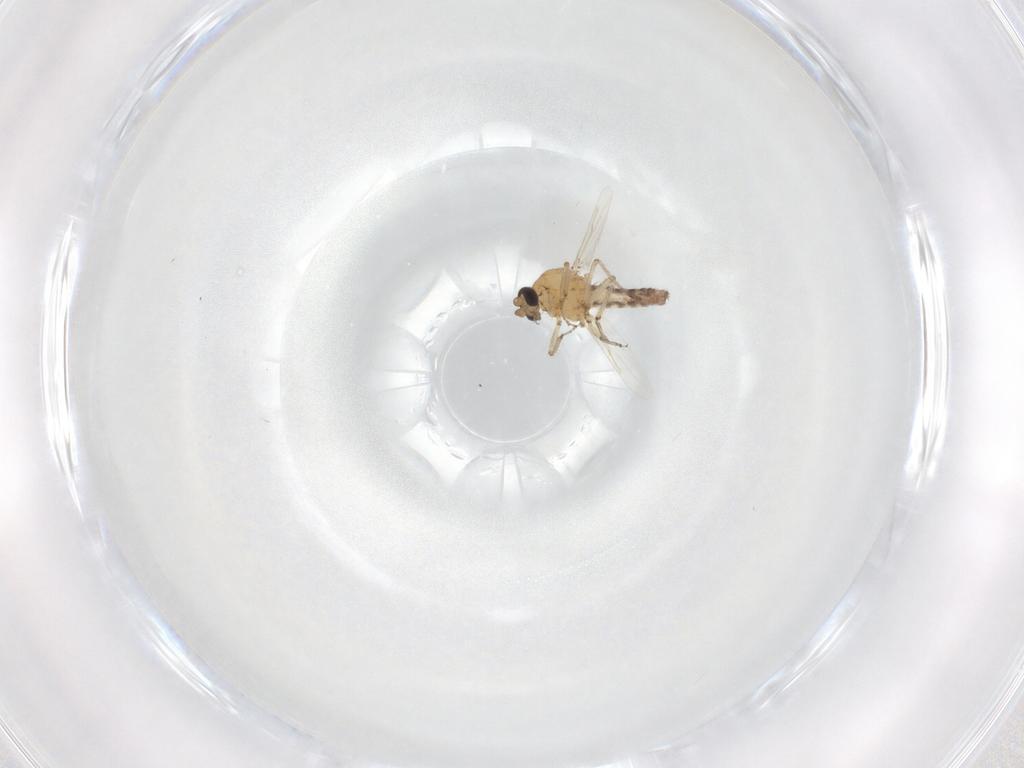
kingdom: Animalia
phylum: Arthropoda
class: Insecta
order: Diptera
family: Ceratopogonidae
